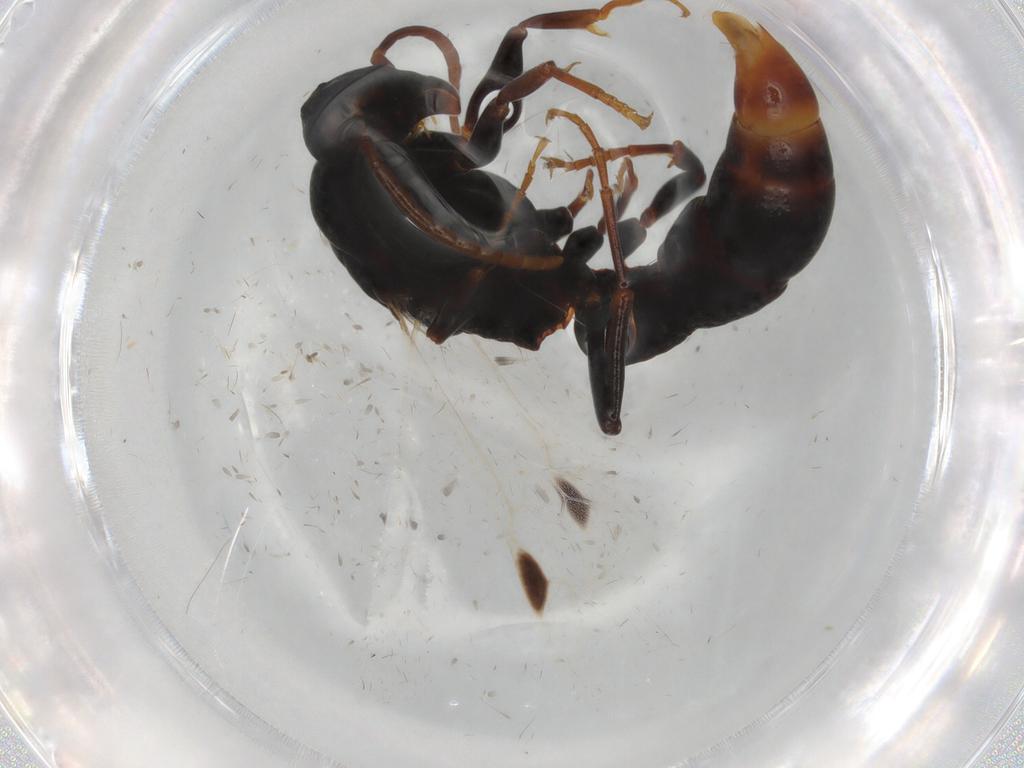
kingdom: Animalia
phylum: Arthropoda
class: Insecta
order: Hymenoptera
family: Formicidae
